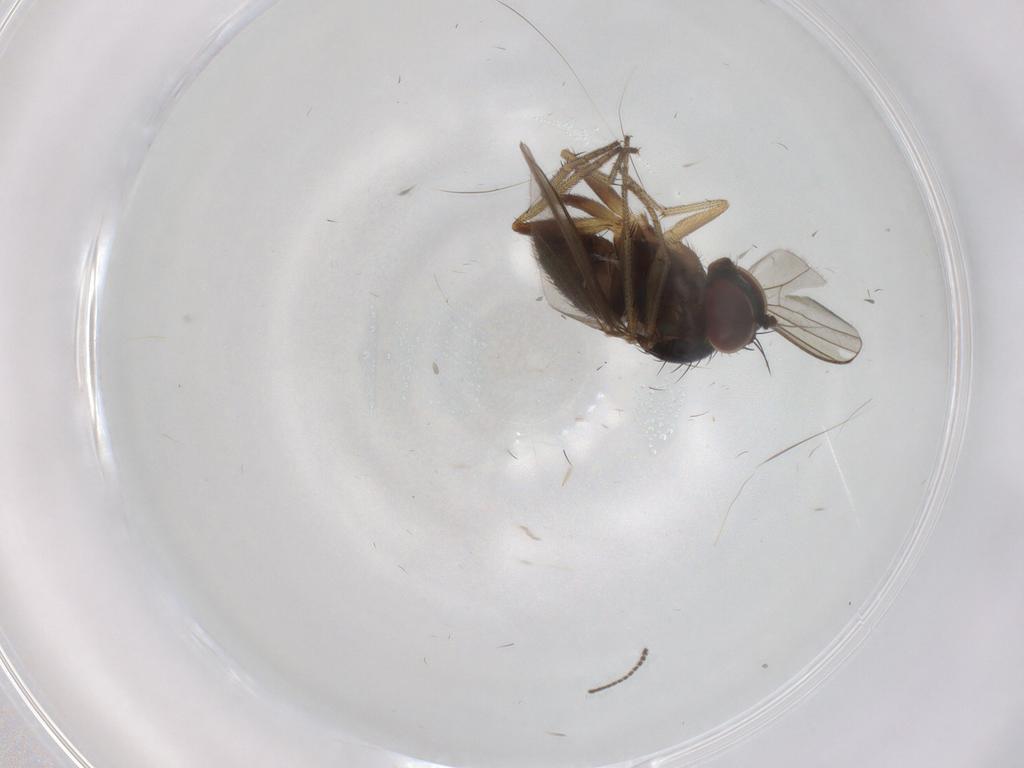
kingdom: Animalia
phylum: Arthropoda
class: Insecta
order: Diptera
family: Sciaridae
